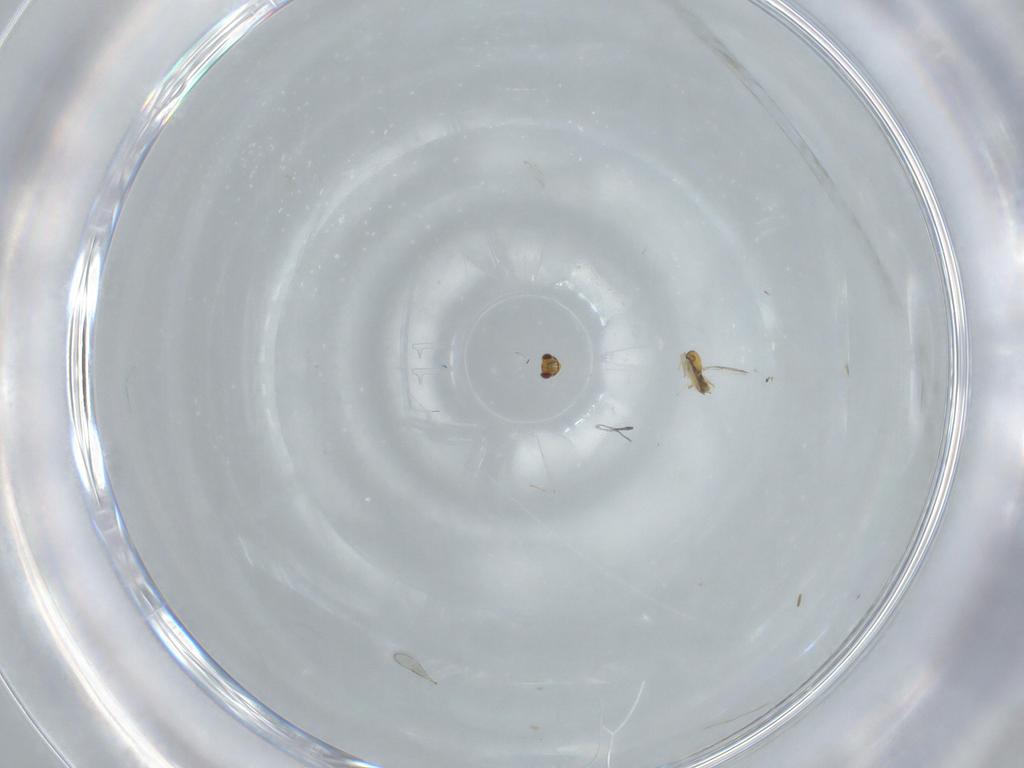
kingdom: Animalia
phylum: Arthropoda
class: Insecta
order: Hymenoptera
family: Aphelinidae
